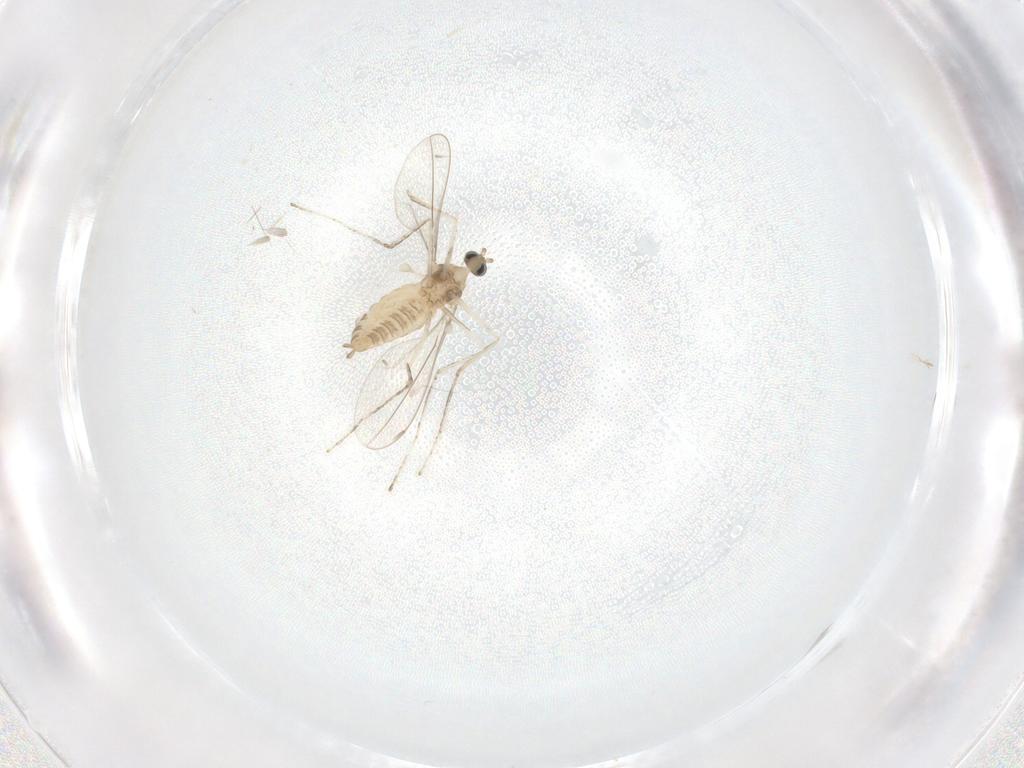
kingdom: Animalia
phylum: Arthropoda
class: Insecta
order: Diptera
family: Cecidomyiidae
